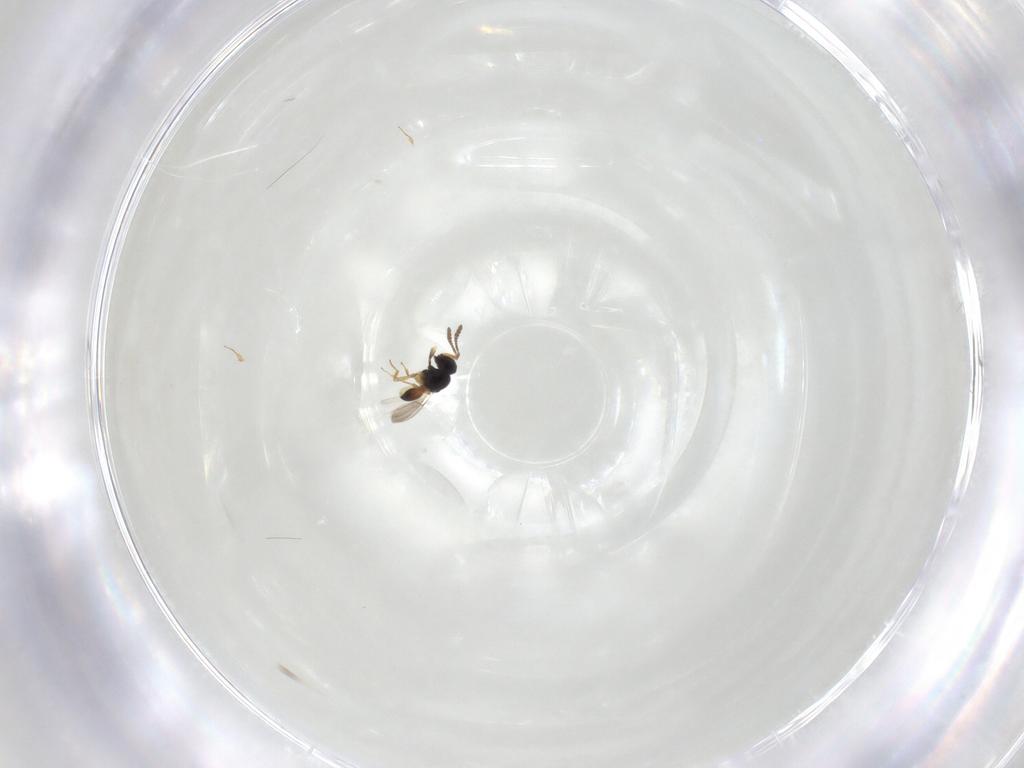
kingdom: Animalia
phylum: Arthropoda
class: Insecta
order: Hymenoptera
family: Scelionidae
